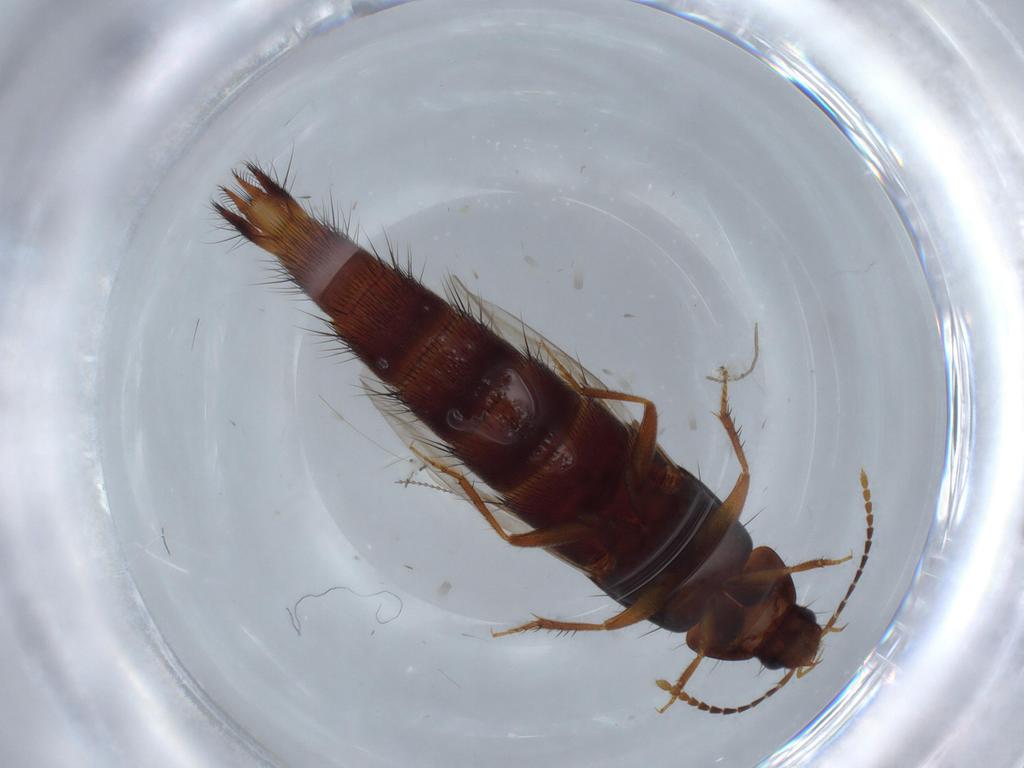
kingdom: Animalia
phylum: Arthropoda
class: Insecta
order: Coleoptera
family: Staphylinidae
